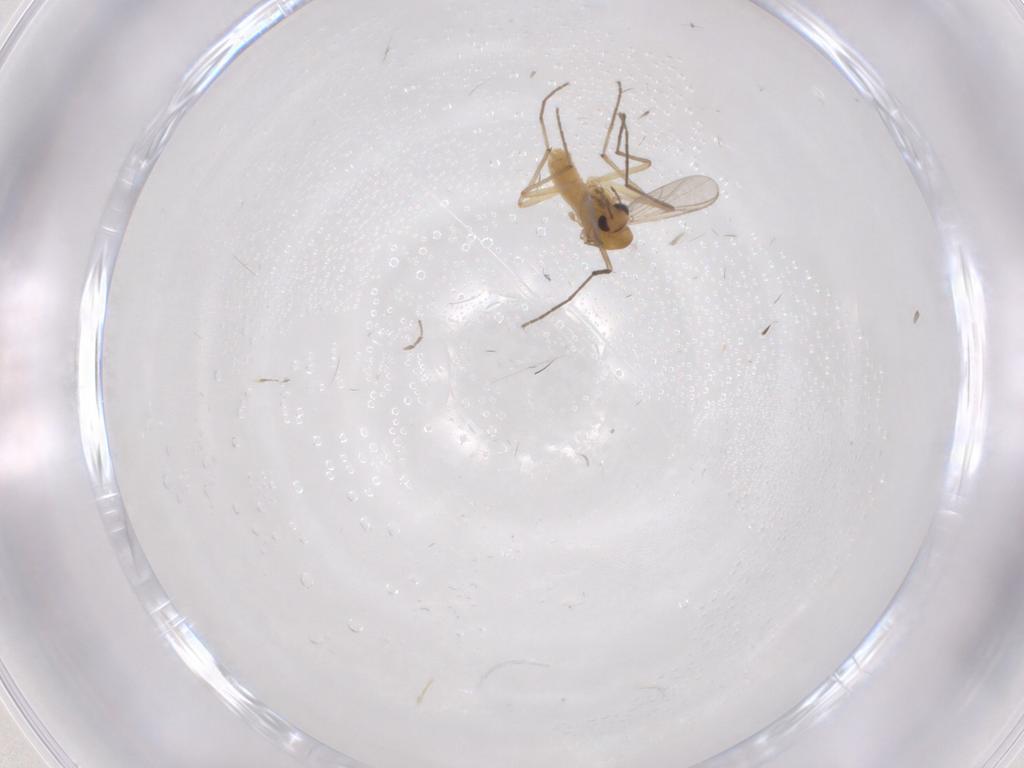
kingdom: Animalia
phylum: Arthropoda
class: Insecta
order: Diptera
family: Chironomidae
